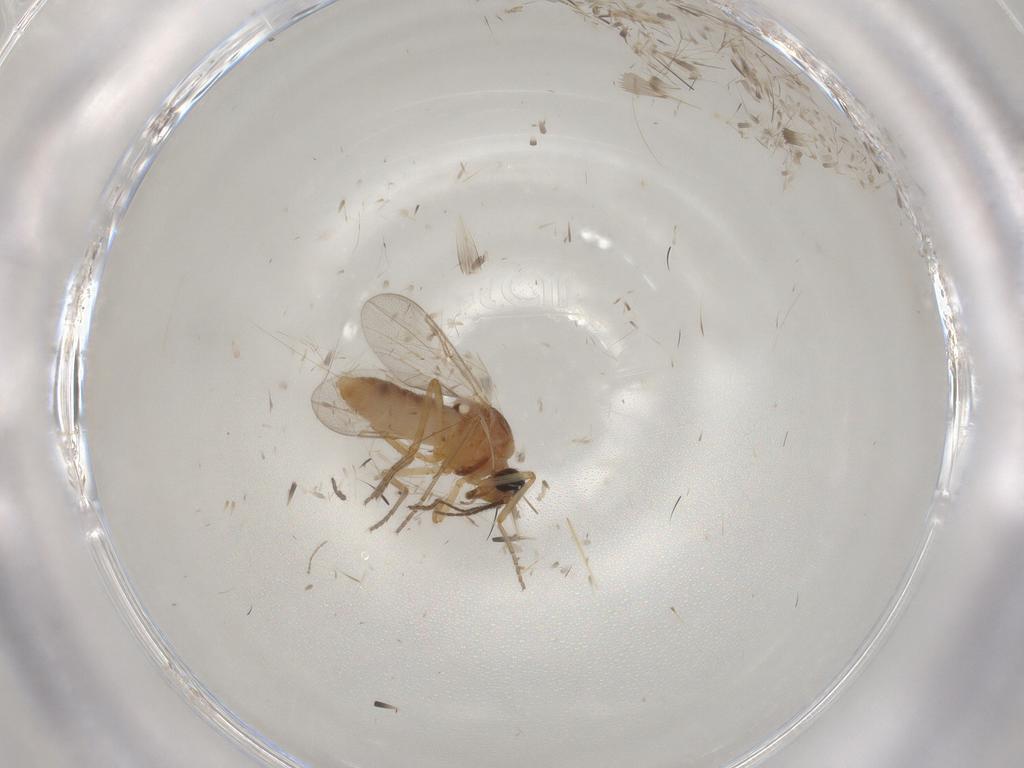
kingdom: Animalia
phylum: Arthropoda
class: Insecta
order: Diptera
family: Ceratopogonidae
